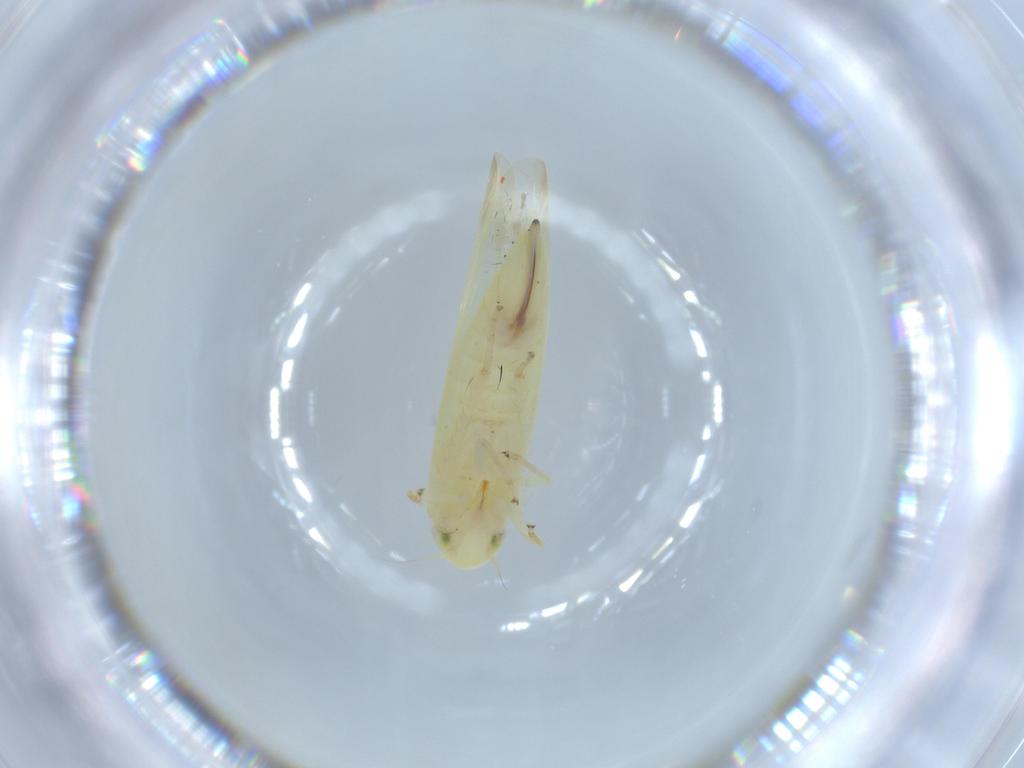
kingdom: Animalia
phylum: Arthropoda
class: Insecta
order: Hemiptera
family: Cicadellidae
